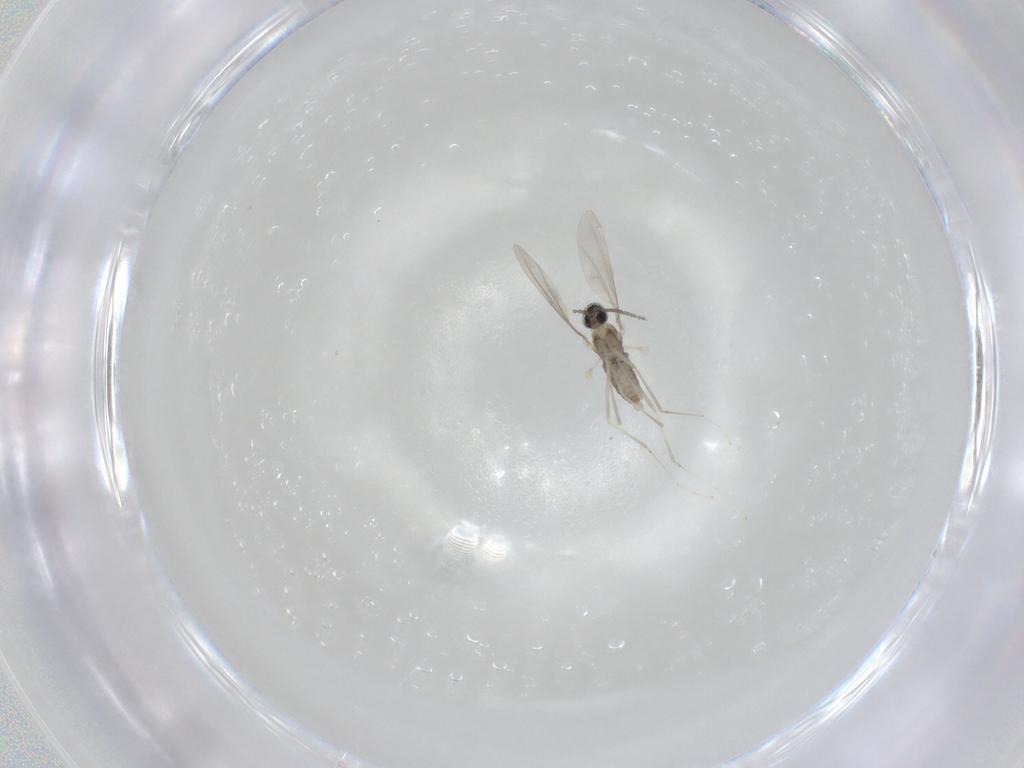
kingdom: Animalia
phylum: Arthropoda
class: Insecta
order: Diptera
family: Cecidomyiidae
